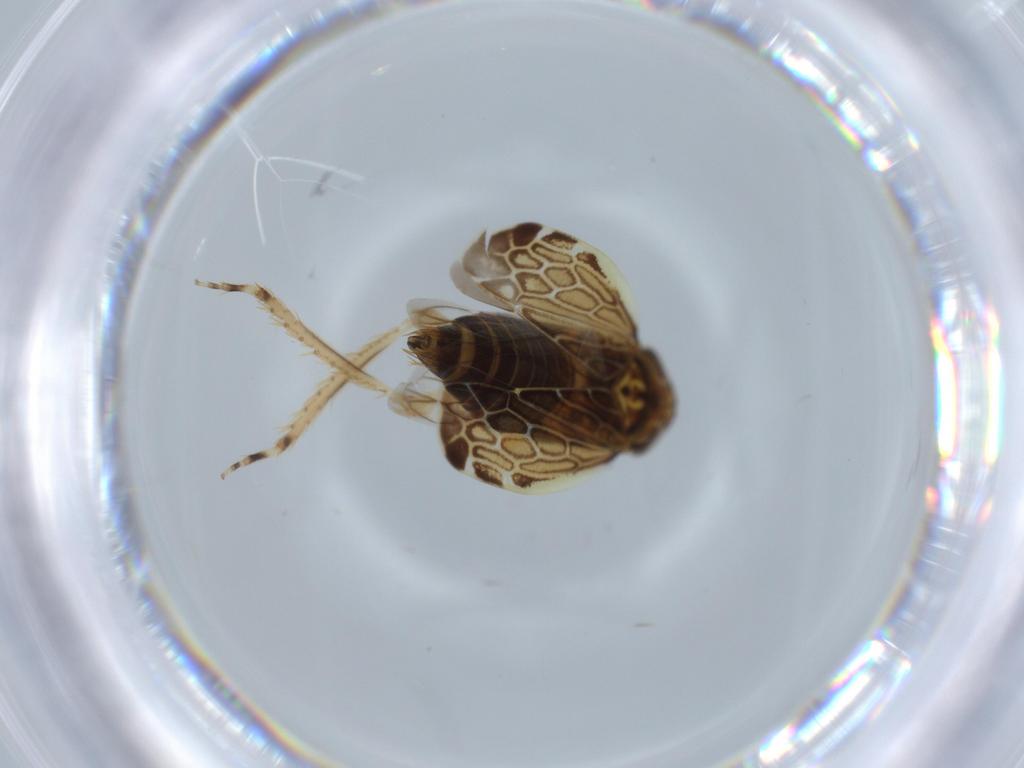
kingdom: Animalia
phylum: Arthropoda
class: Insecta
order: Hemiptera
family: Cicadellidae
